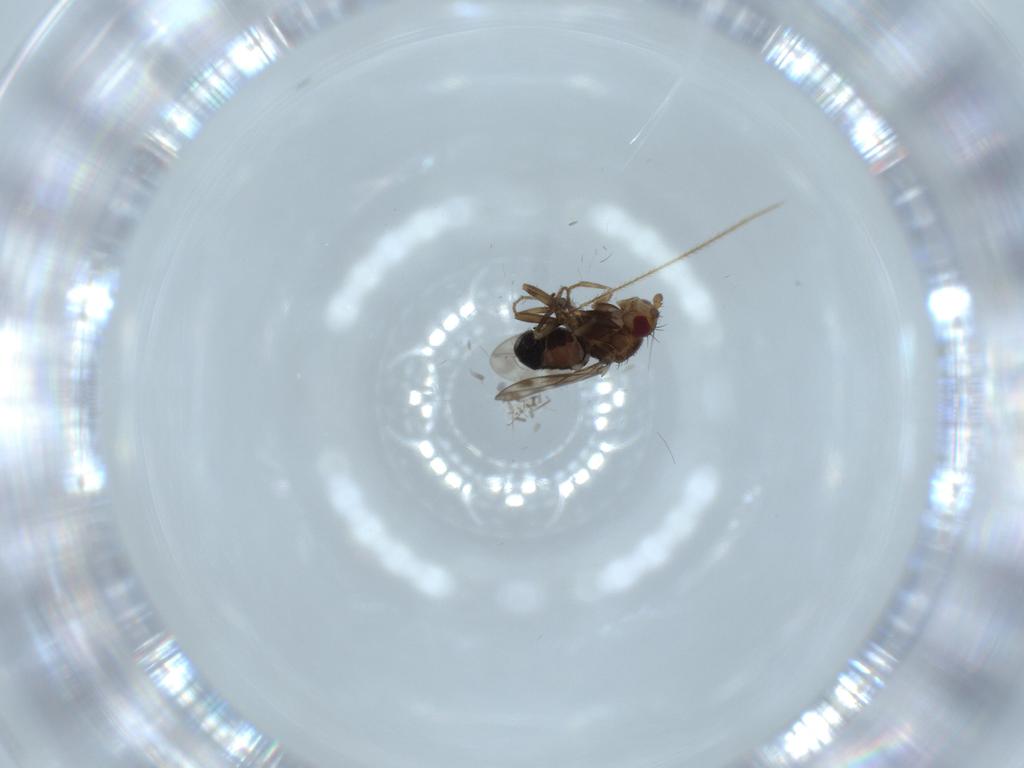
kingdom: Animalia
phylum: Arthropoda
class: Insecta
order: Diptera
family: Sphaeroceridae
